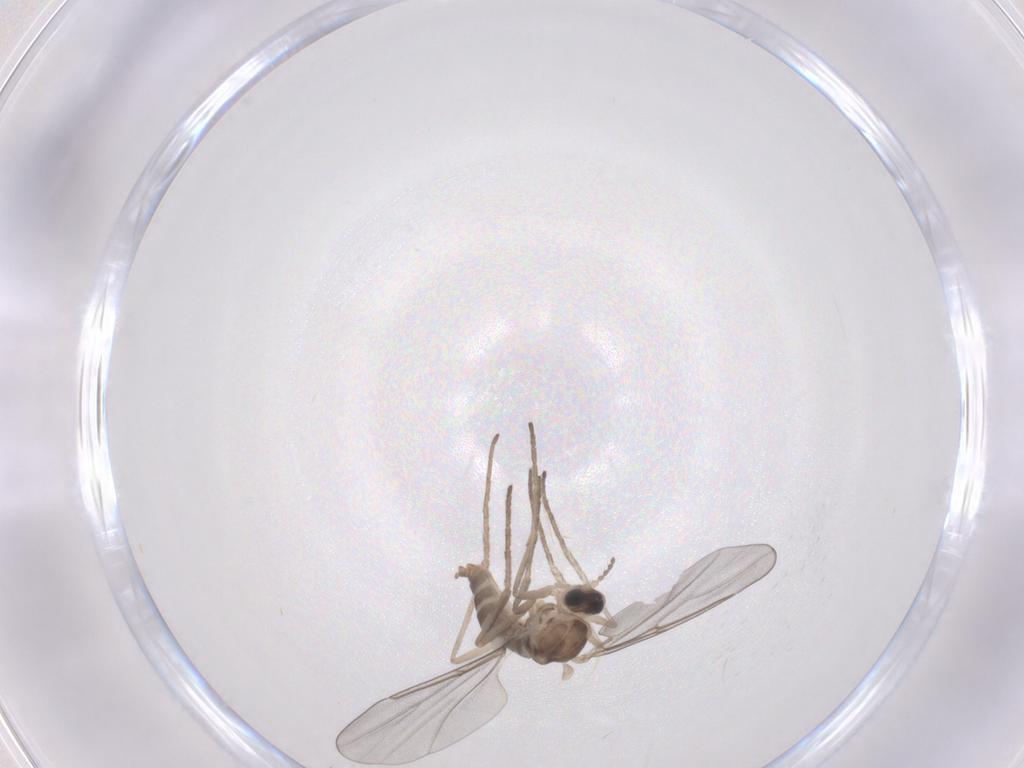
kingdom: Animalia
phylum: Arthropoda
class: Insecta
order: Diptera
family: Cecidomyiidae
